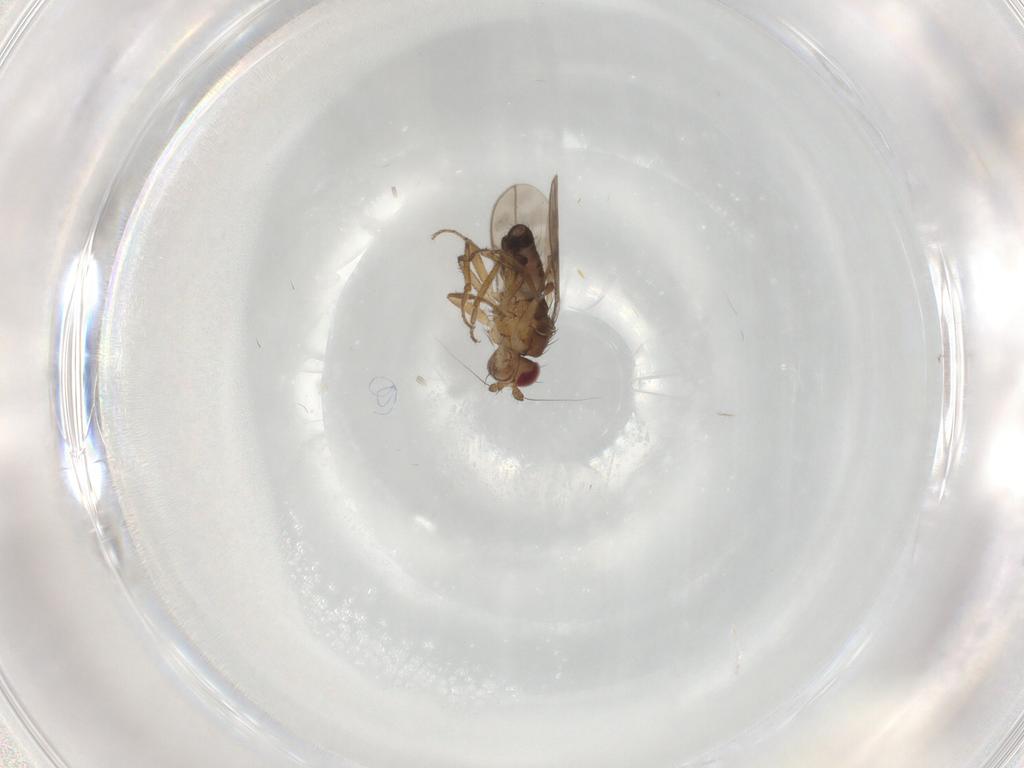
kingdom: Animalia
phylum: Arthropoda
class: Insecta
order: Diptera
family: Sphaeroceridae
